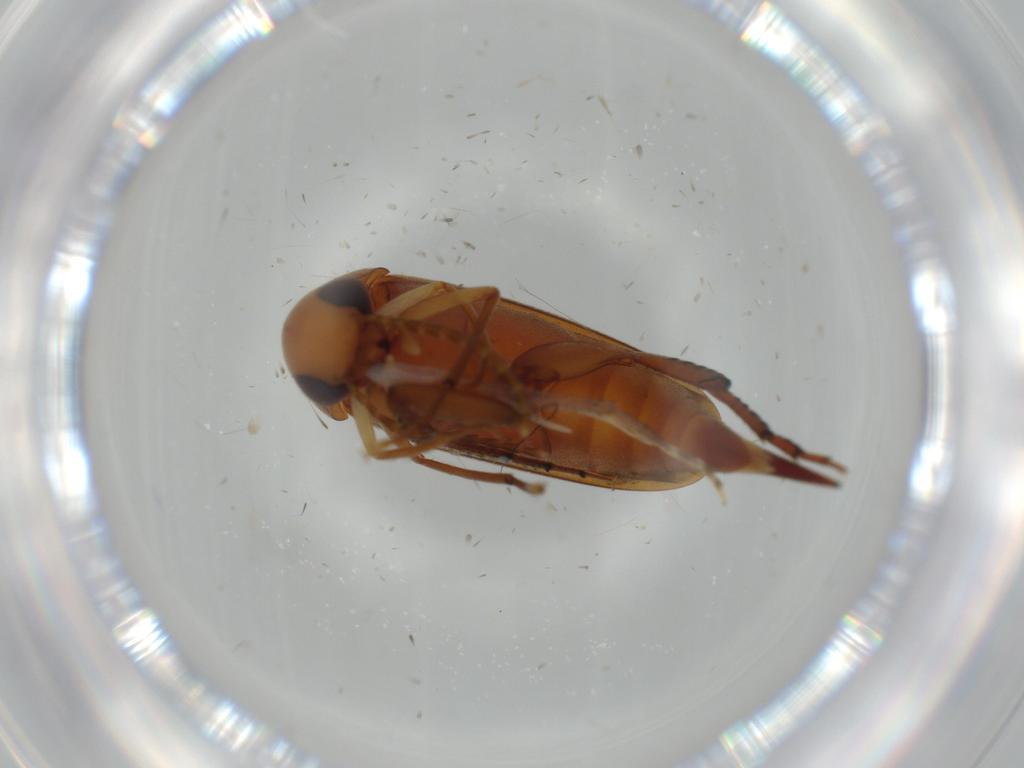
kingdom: Animalia
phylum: Arthropoda
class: Insecta
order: Coleoptera
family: Mordellidae
